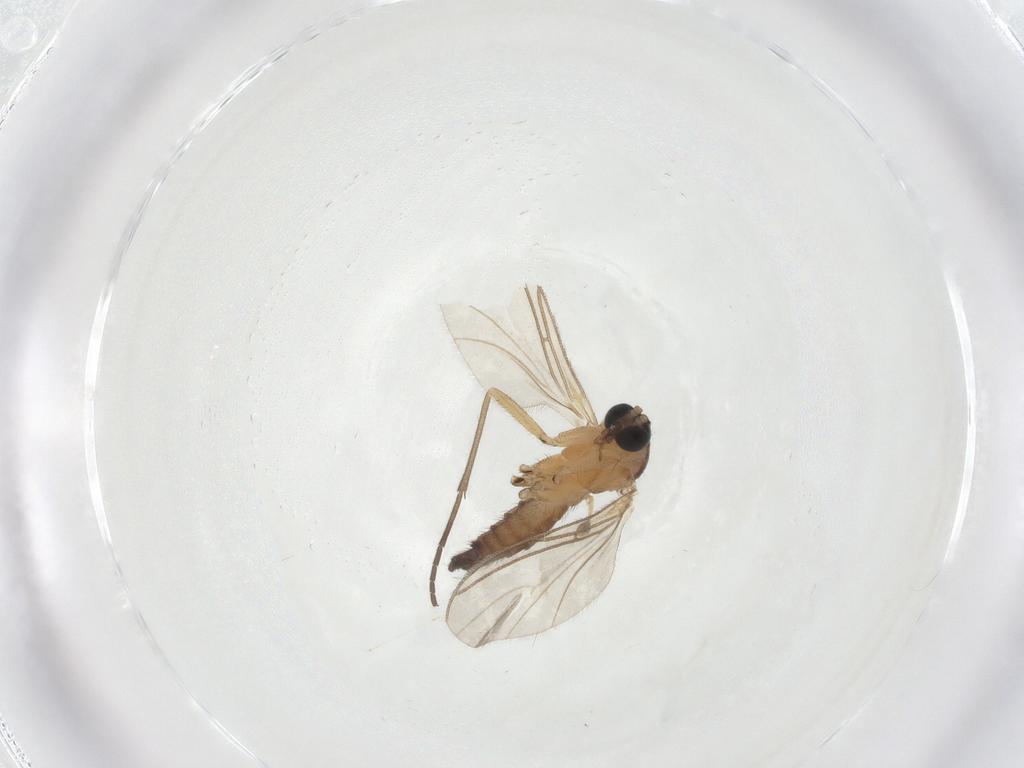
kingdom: Animalia
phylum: Arthropoda
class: Insecta
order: Diptera
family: Sciaridae
